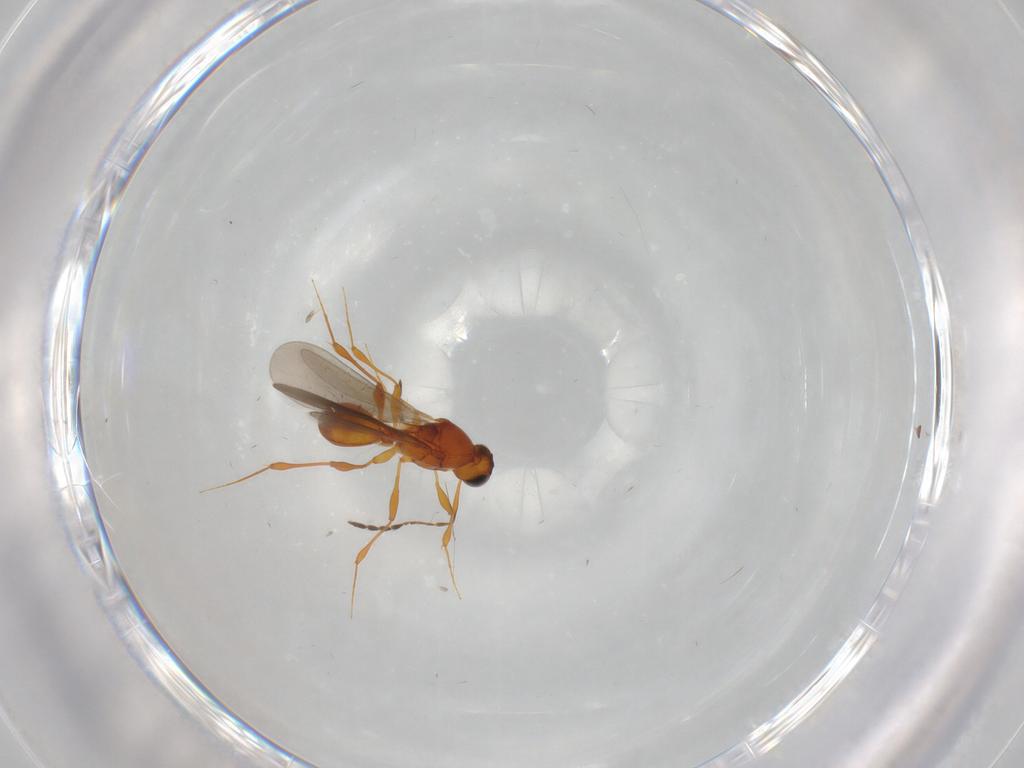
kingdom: Animalia
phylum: Arthropoda
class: Insecta
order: Hymenoptera
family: Platygastridae
